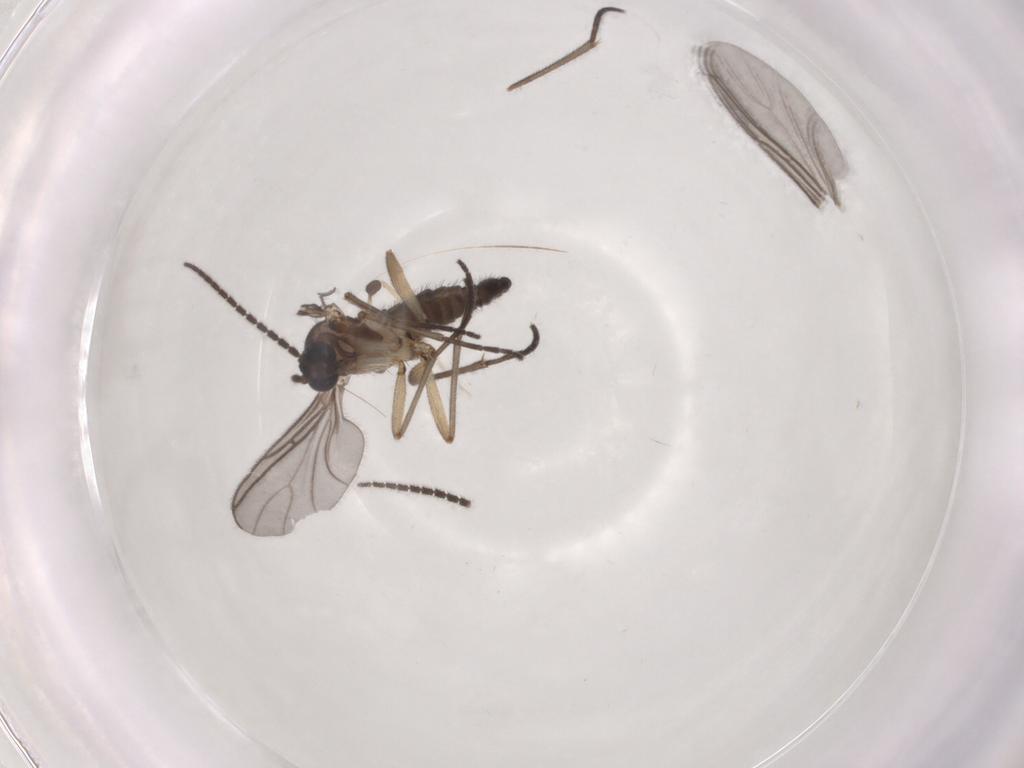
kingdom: Animalia
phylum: Arthropoda
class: Insecta
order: Diptera
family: Sciaridae
